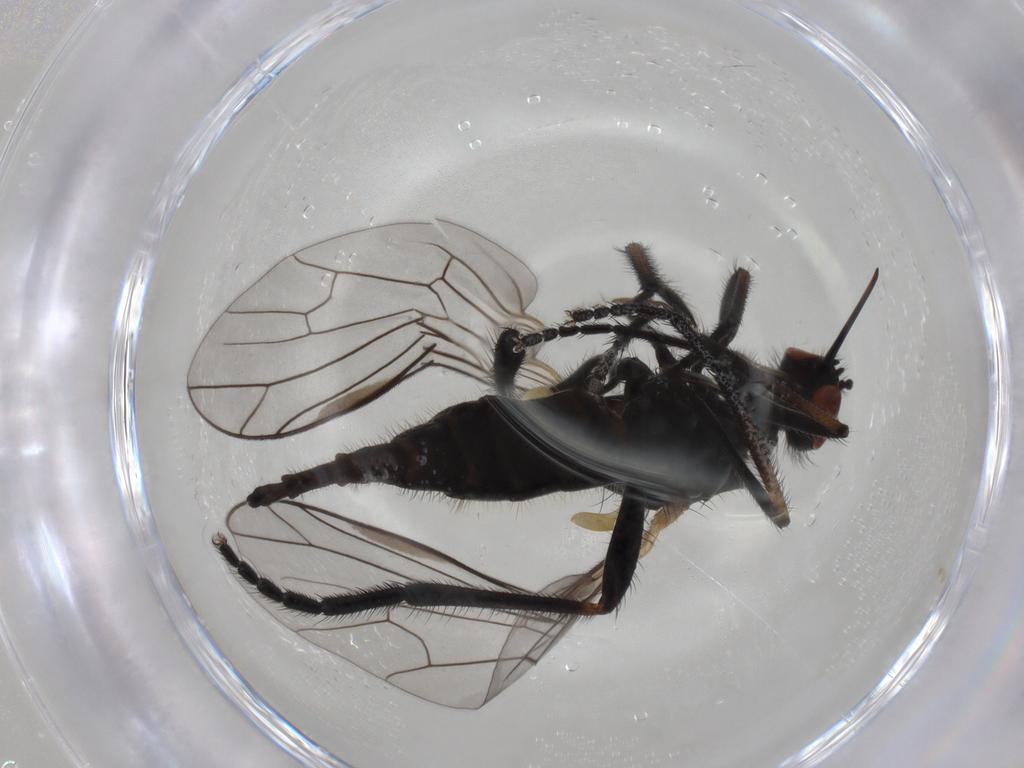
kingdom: Animalia
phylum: Arthropoda
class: Insecta
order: Diptera
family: Empididae
